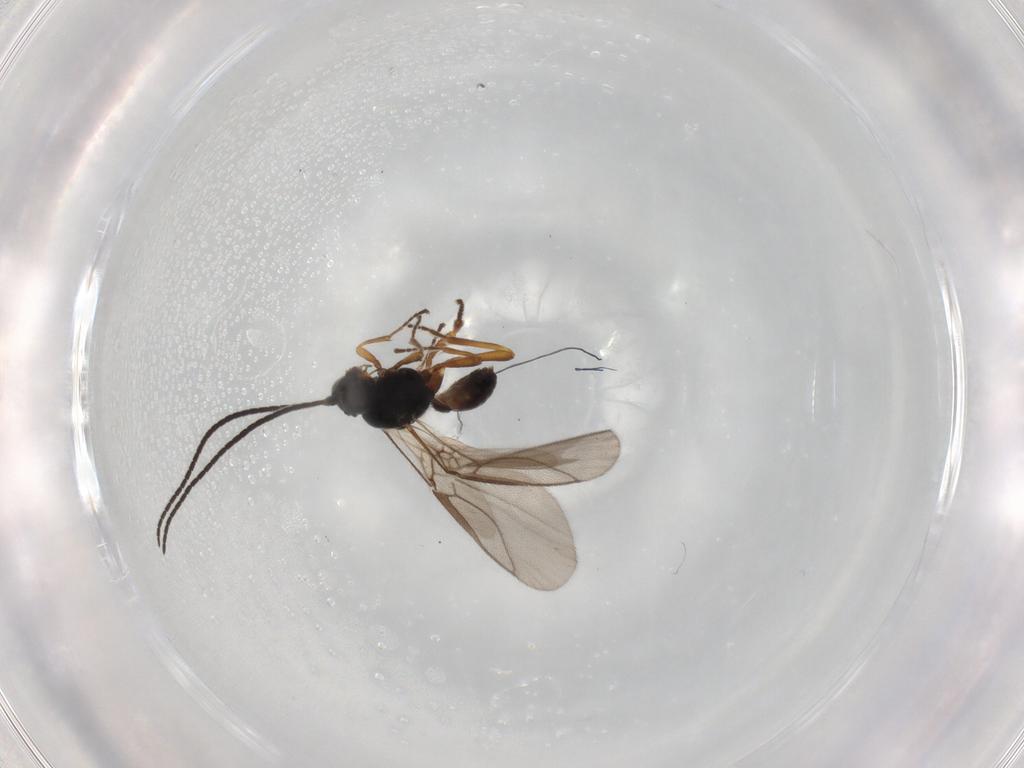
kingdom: Animalia
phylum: Arthropoda
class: Insecta
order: Hymenoptera
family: Braconidae
